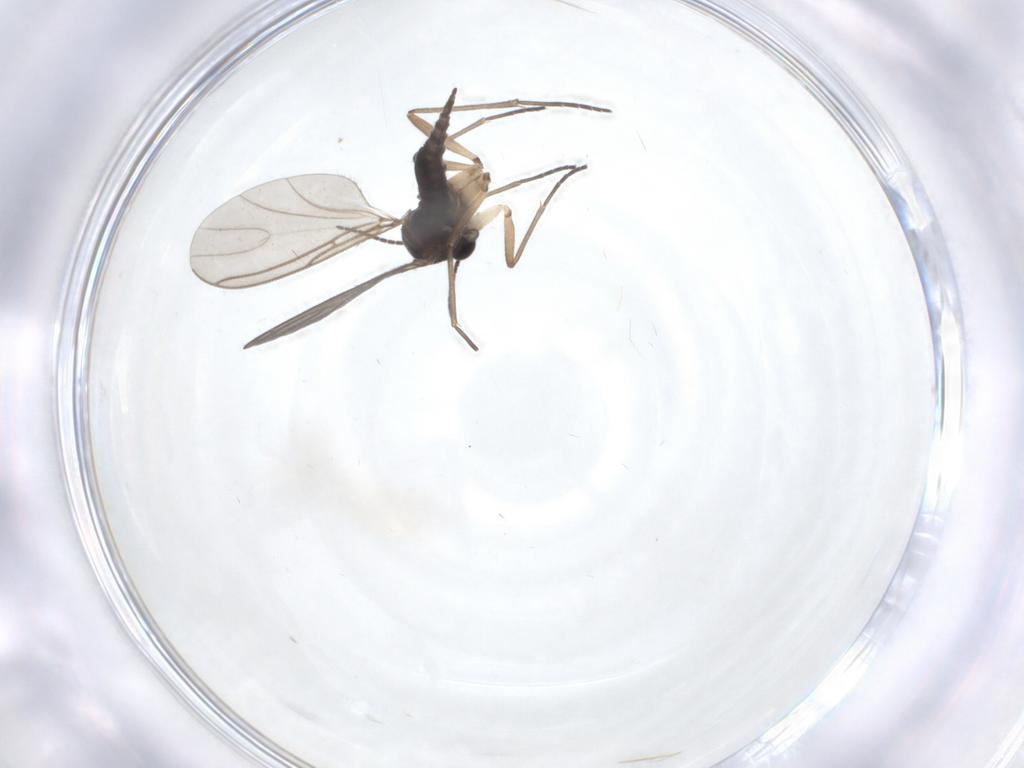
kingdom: Animalia
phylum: Arthropoda
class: Insecta
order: Diptera
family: Sciaridae
